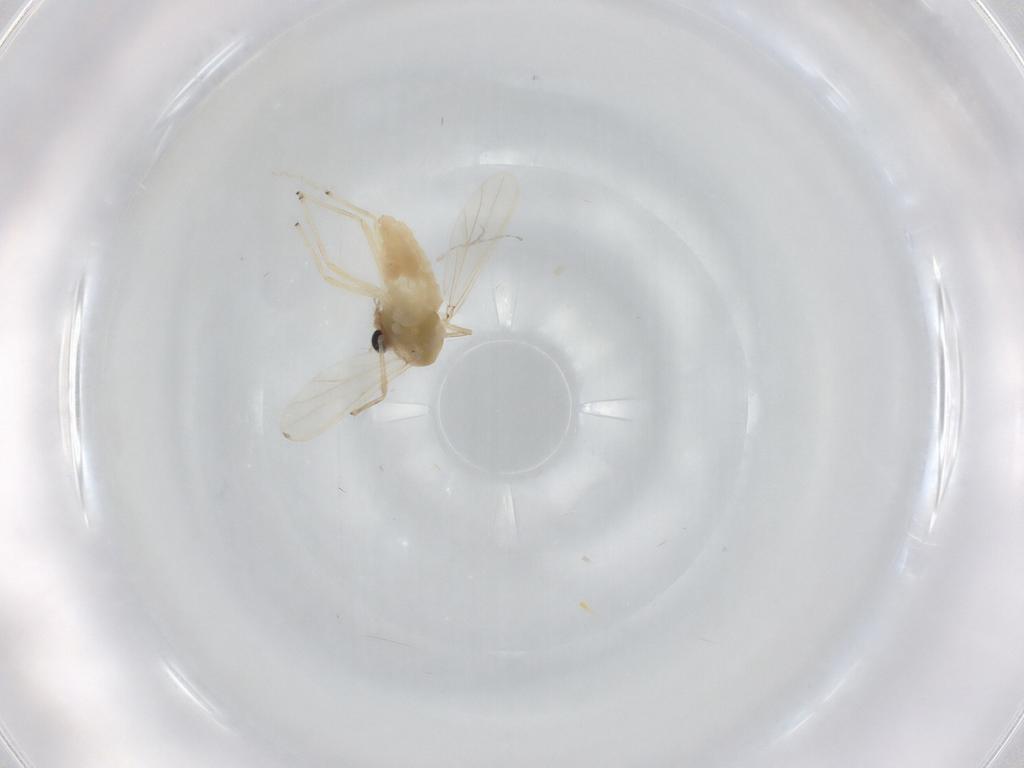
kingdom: Animalia
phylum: Arthropoda
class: Insecta
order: Diptera
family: Chironomidae
